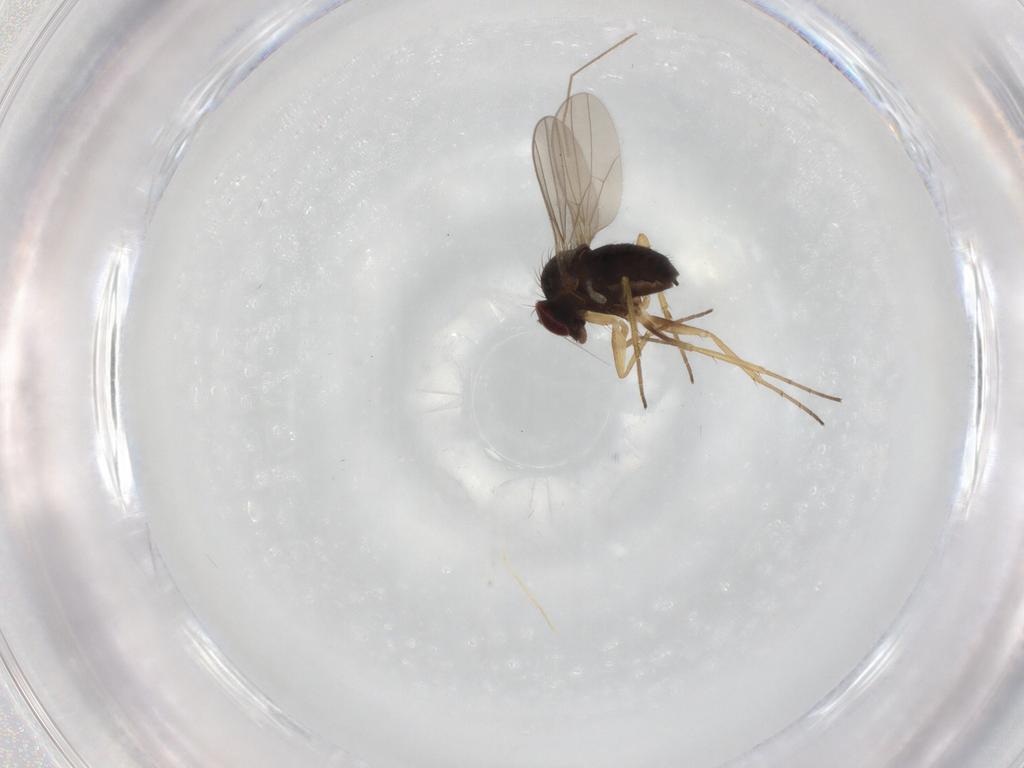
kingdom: Animalia
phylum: Arthropoda
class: Insecta
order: Diptera
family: Dolichopodidae
